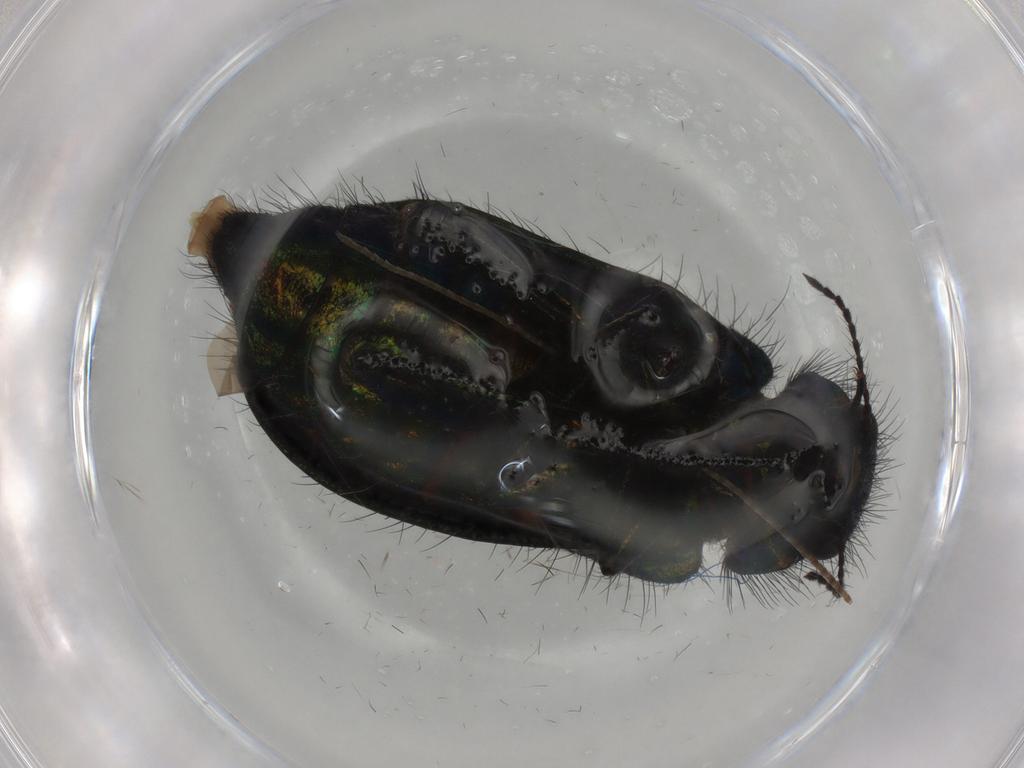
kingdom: Animalia
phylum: Arthropoda
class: Insecta
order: Coleoptera
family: Melyridae
